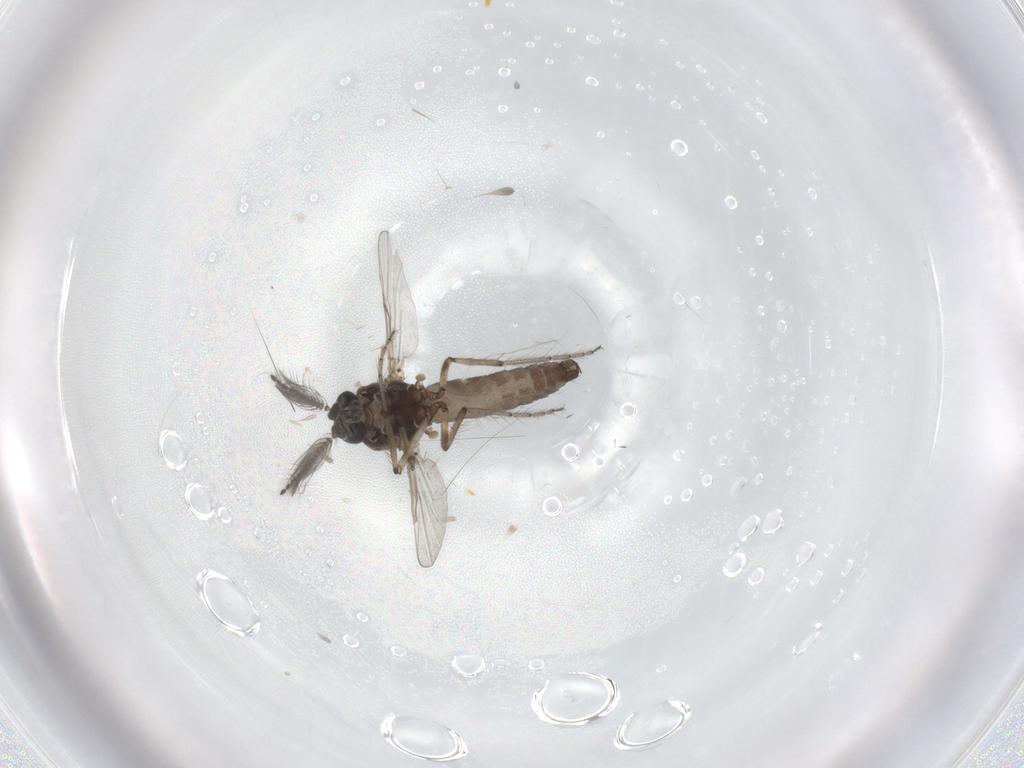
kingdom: Animalia
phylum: Arthropoda
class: Insecta
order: Diptera
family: Ceratopogonidae
